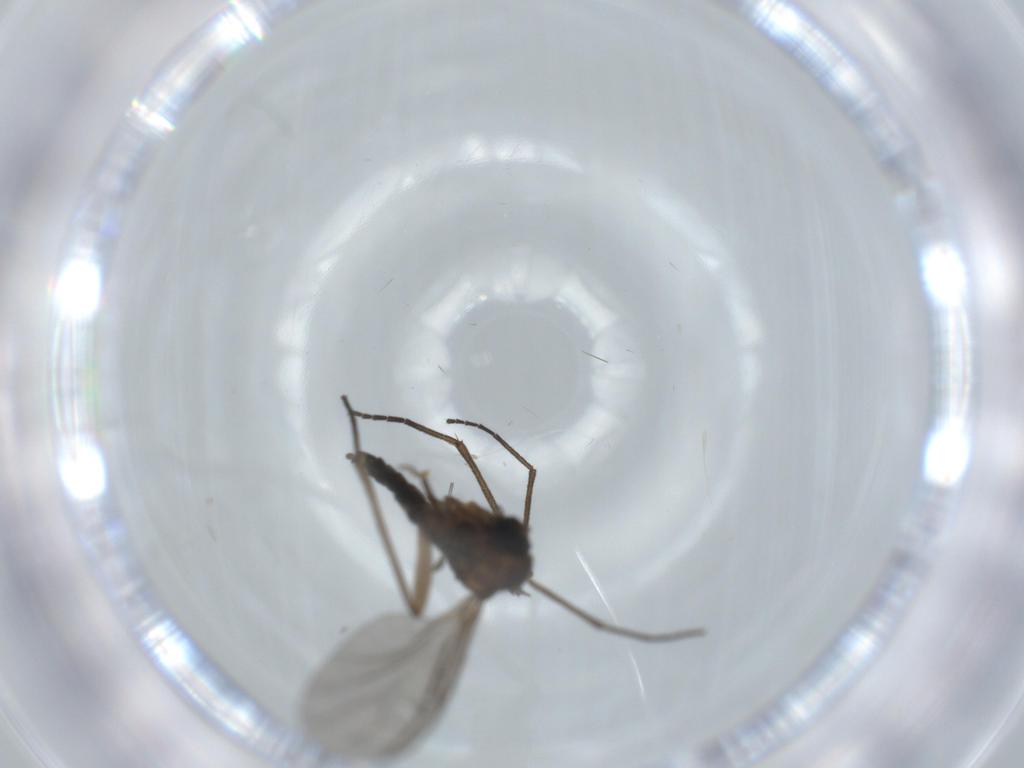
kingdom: Animalia
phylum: Arthropoda
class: Insecta
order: Diptera
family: Sciaridae
